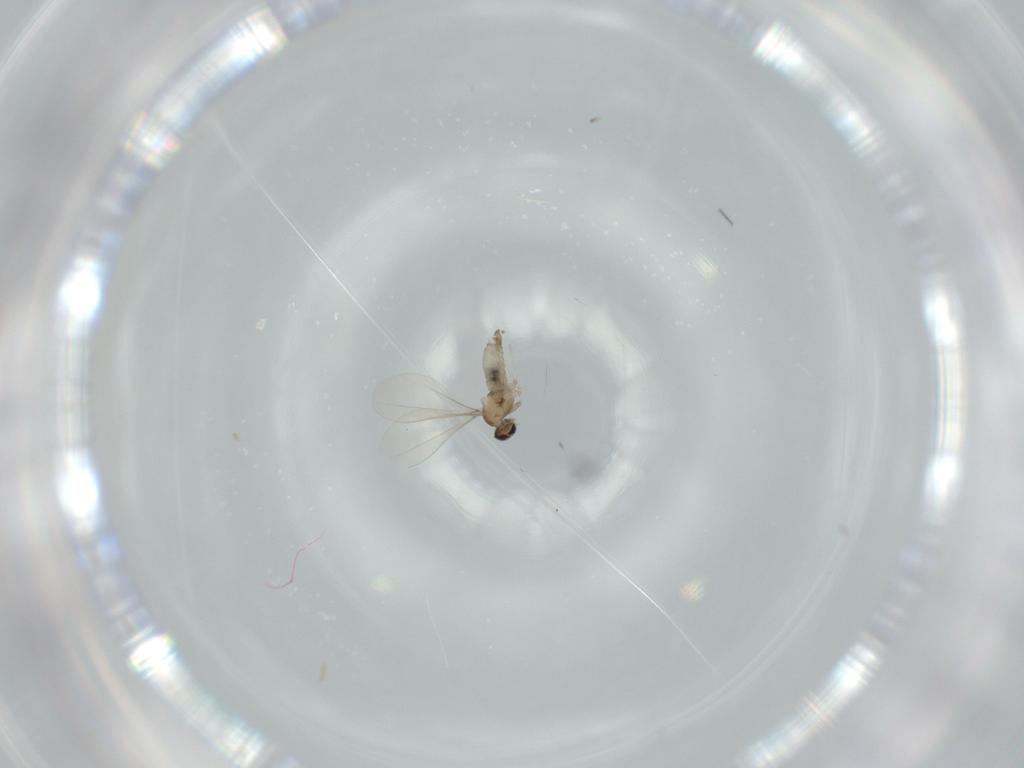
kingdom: Animalia
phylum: Arthropoda
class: Insecta
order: Diptera
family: Cecidomyiidae
